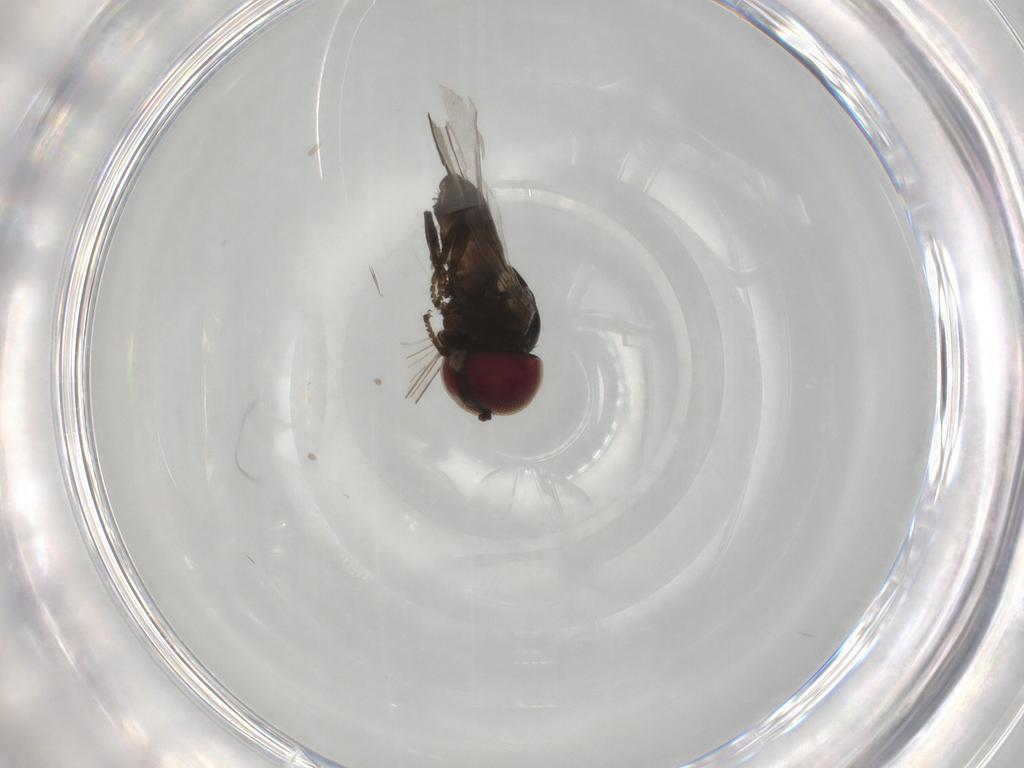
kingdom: Animalia
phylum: Arthropoda
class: Insecta
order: Diptera
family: Pipunculidae
